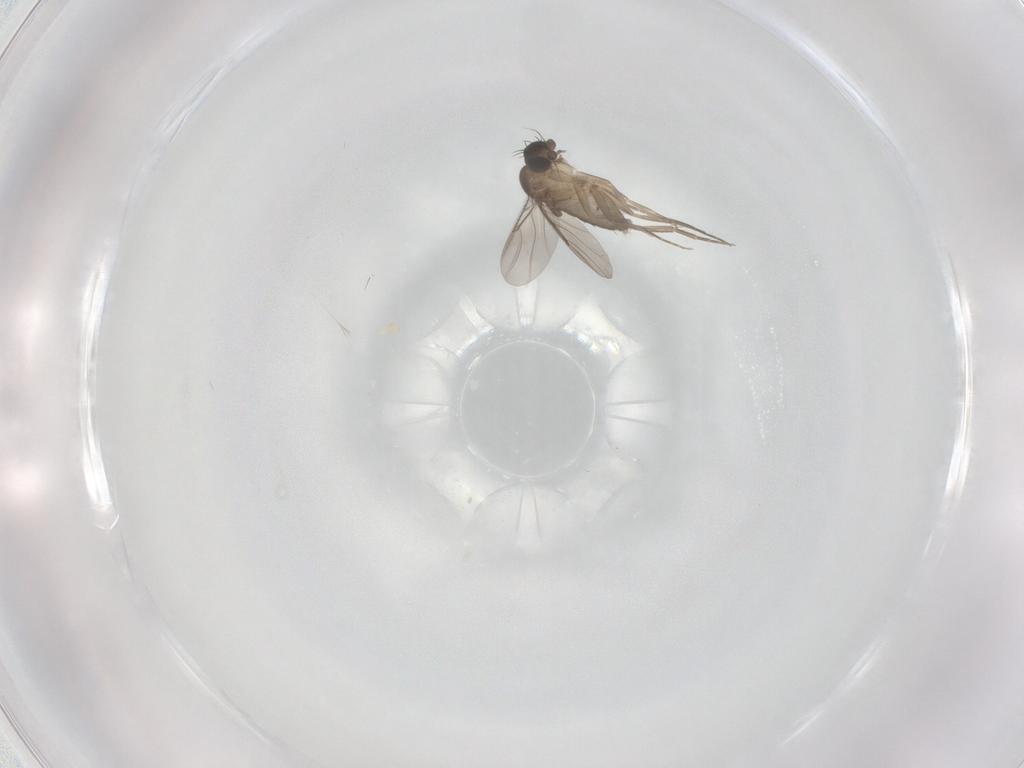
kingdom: Animalia
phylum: Arthropoda
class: Insecta
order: Diptera
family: Phoridae
